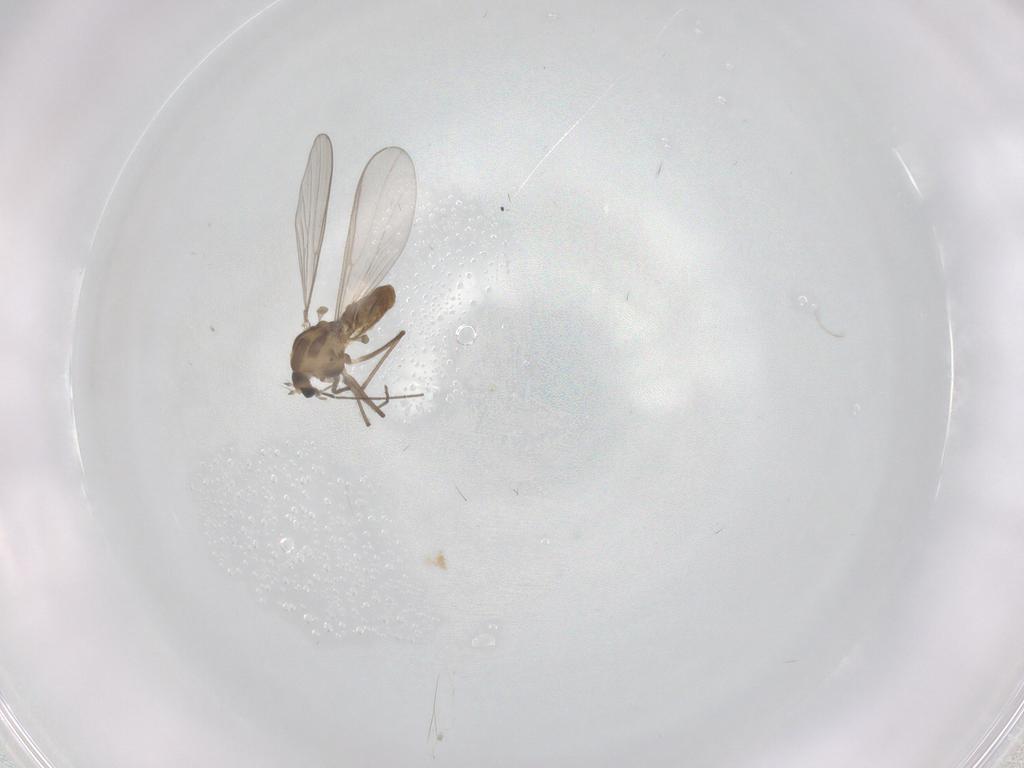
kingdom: Animalia
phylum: Arthropoda
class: Insecta
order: Diptera
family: Chironomidae
